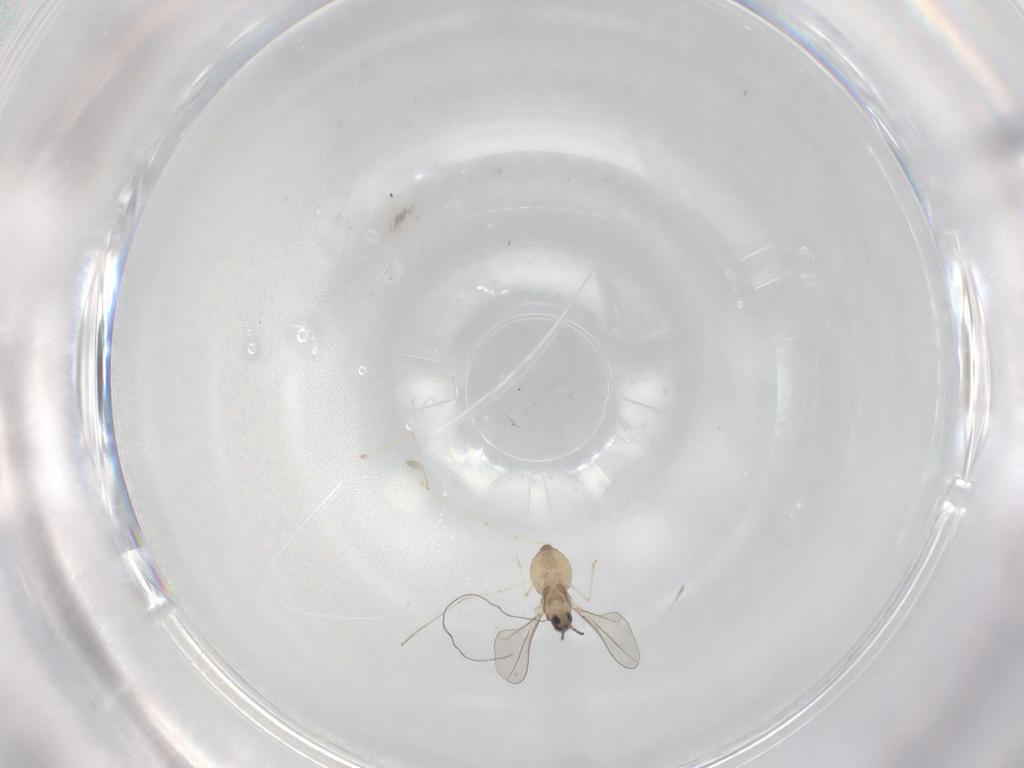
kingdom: Animalia
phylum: Arthropoda
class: Insecta
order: Diptera
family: Cecidomyiidae
